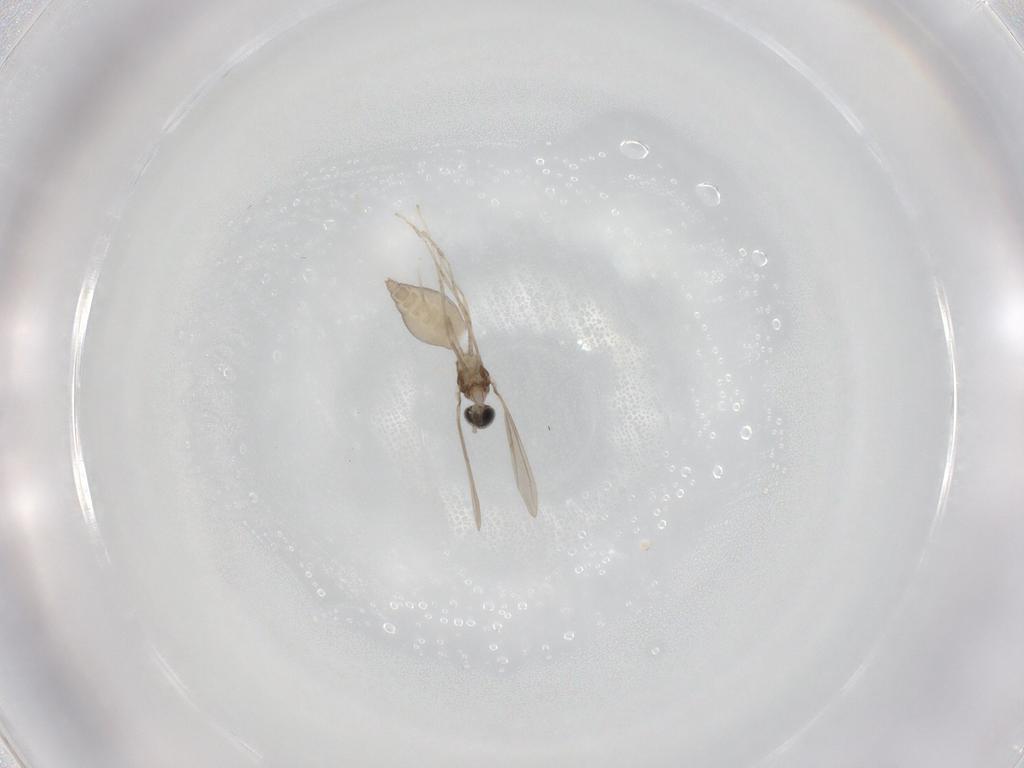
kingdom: Animalia
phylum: Arthropoda
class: Insecta
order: Diptera
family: Cecidomyiidae
